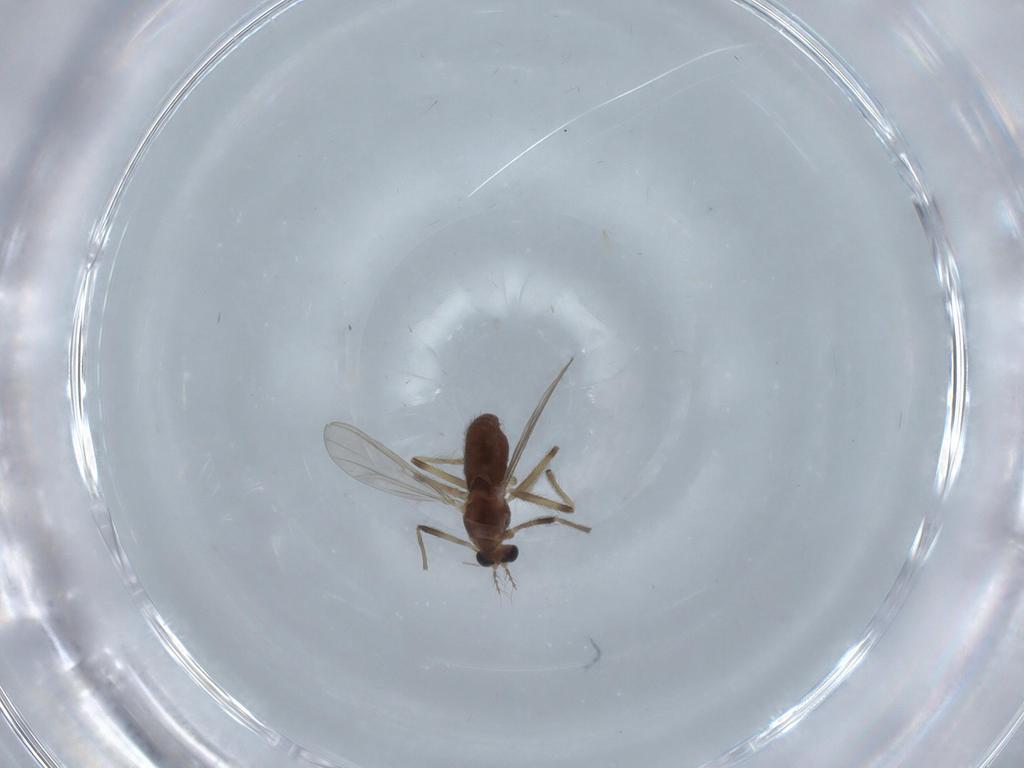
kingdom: Animalia
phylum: Arthropoda
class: Insecta
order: Diptera
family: Chironomidae
